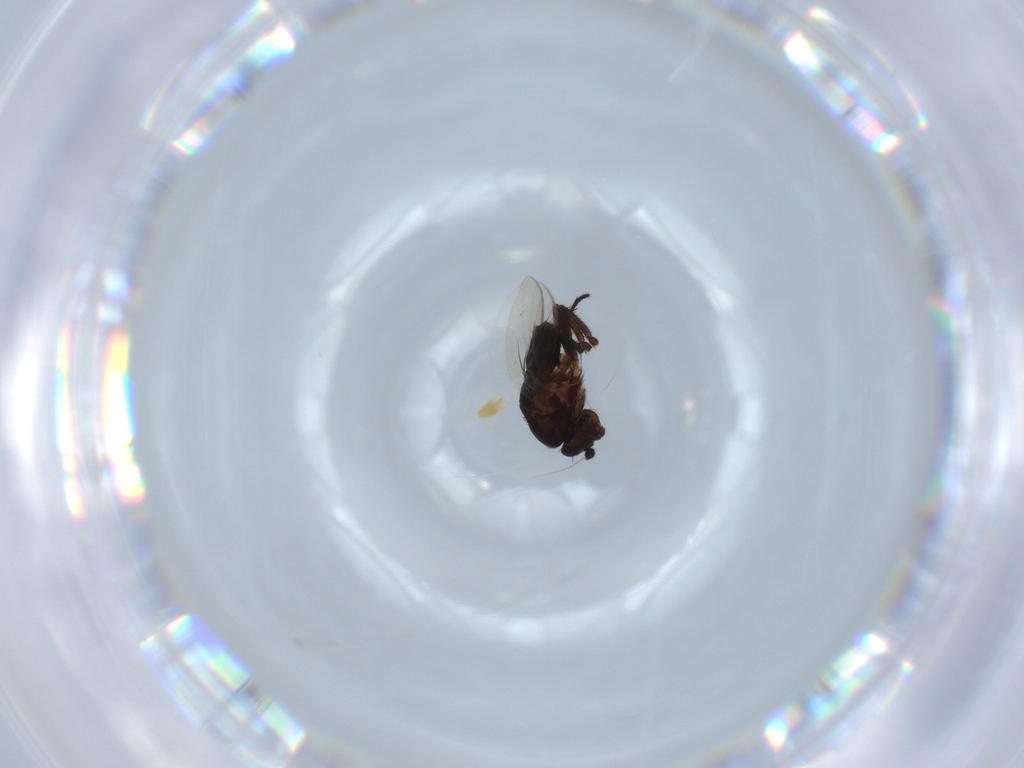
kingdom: Animalia
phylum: Arthropoda
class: Insecta
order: Diptera
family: Sphaeroceridae
